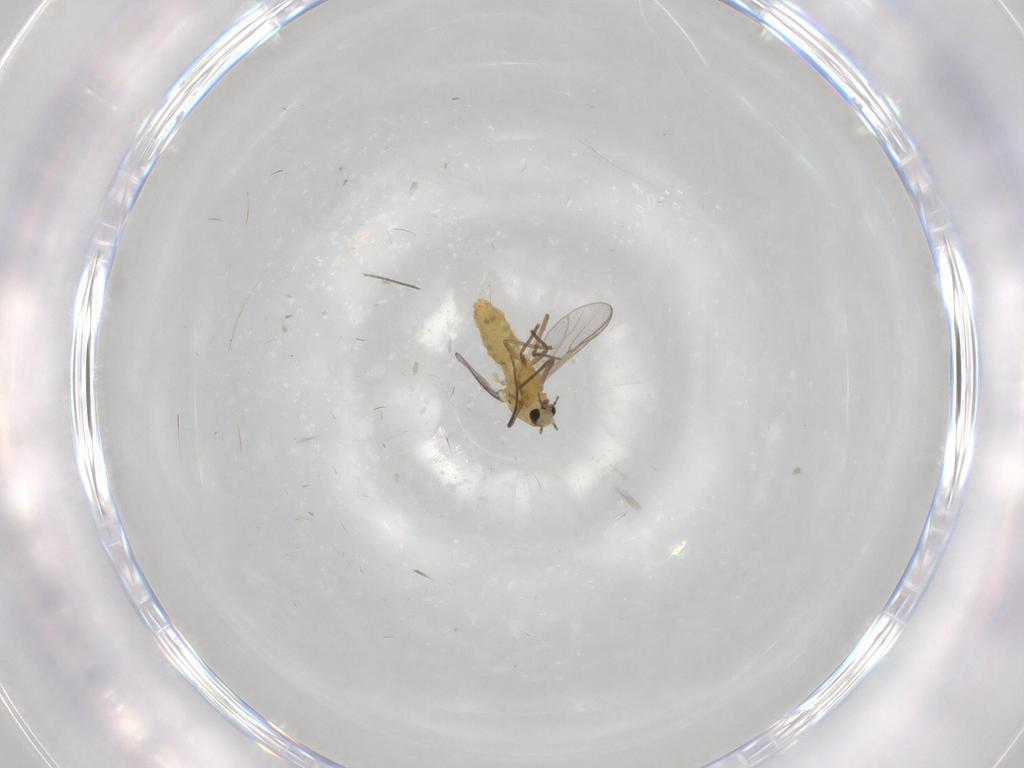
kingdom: Animalia
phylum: Arthropoda
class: Insecta
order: Diptera
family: Chironomidae
